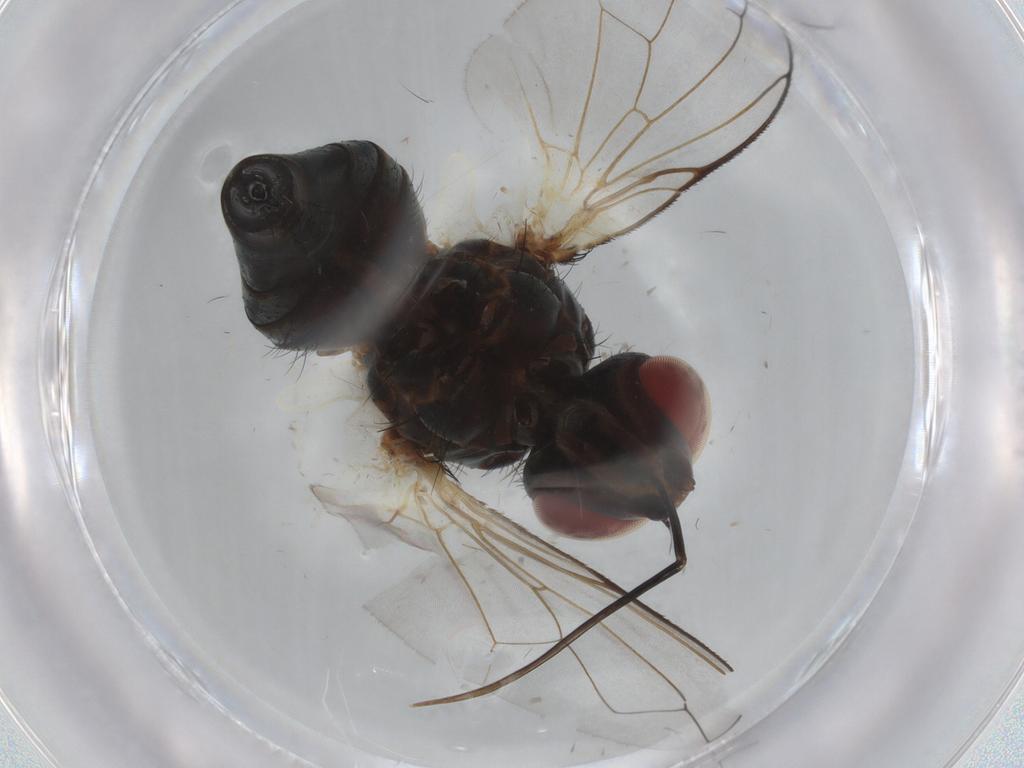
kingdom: Animalia
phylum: Arthropoda
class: Insecta
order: Diptera
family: Tachinidae
